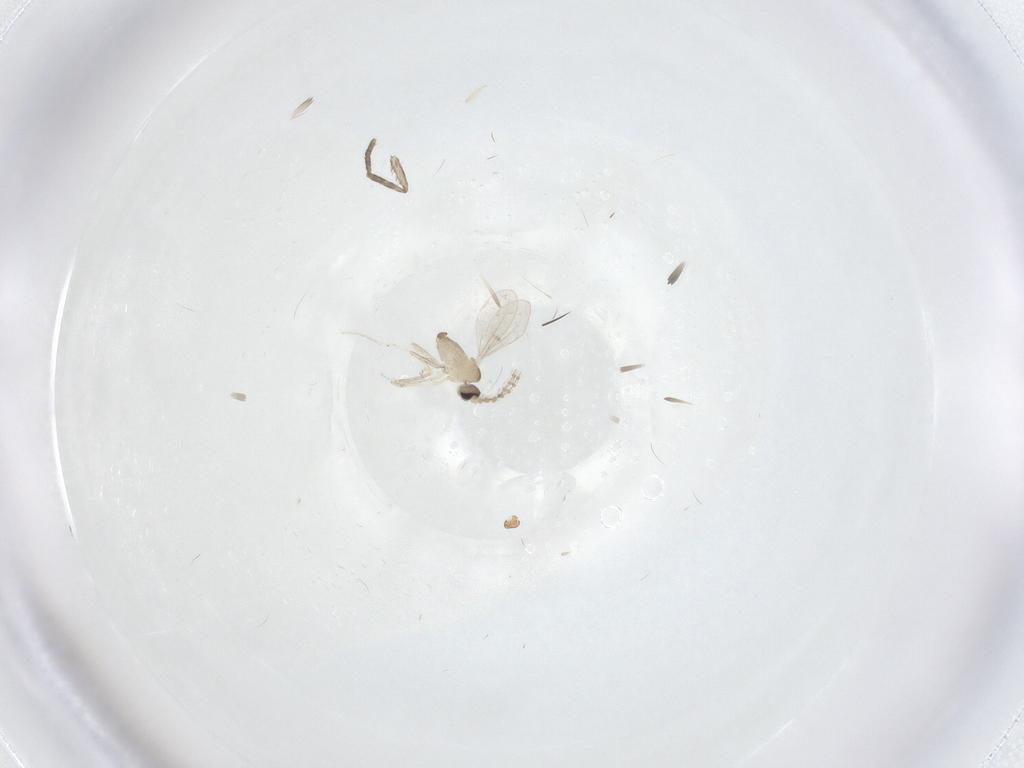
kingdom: Animalia
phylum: Arthropoda
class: Insecta
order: Diptera
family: Cecidomyiidae
